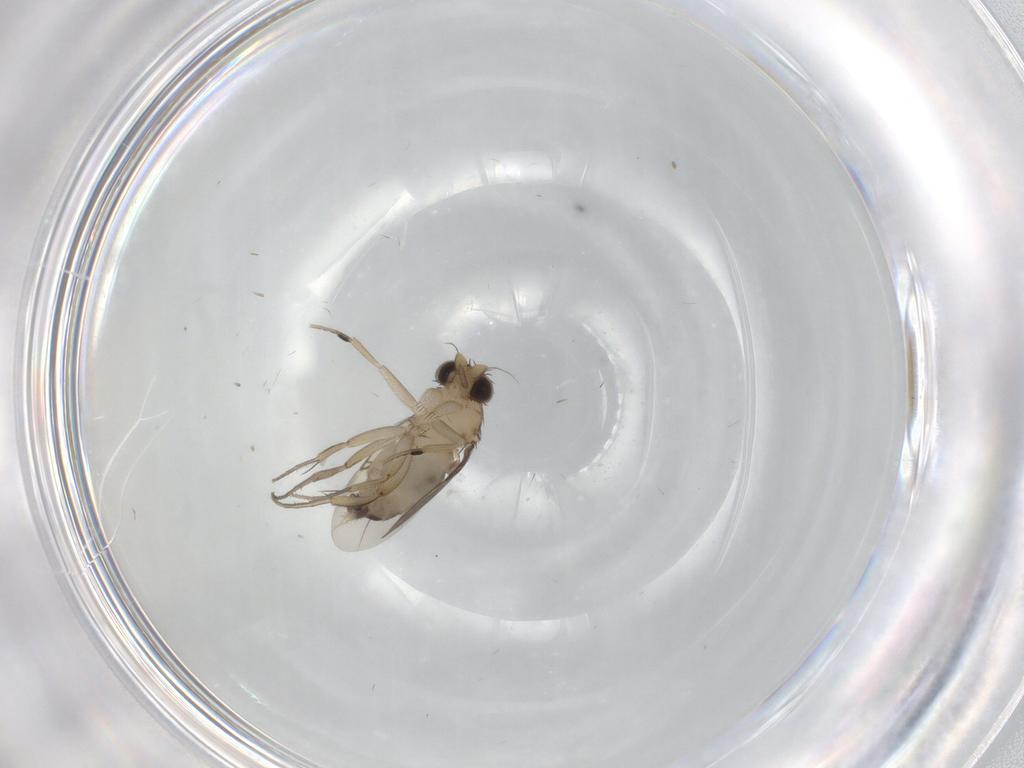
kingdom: Animalia
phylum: Arthropoda
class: Insecta
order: Diptera
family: Phoridae
